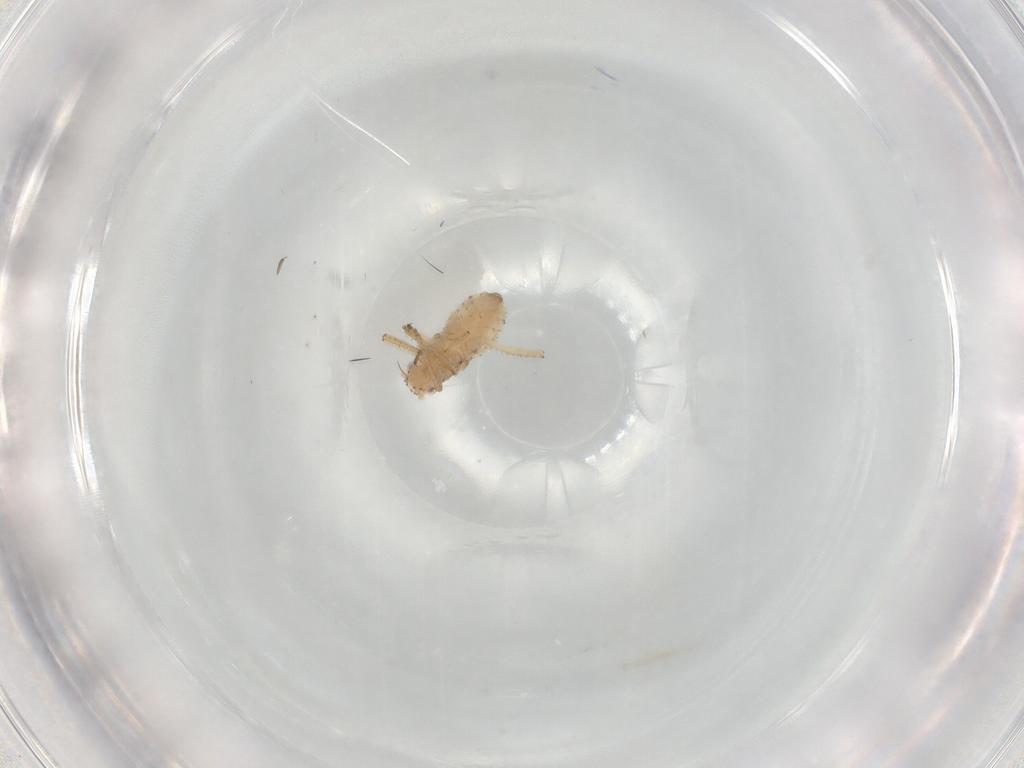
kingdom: Animalia
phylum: Arthropoda
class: Insecta
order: Hemiptera
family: Aphididae
